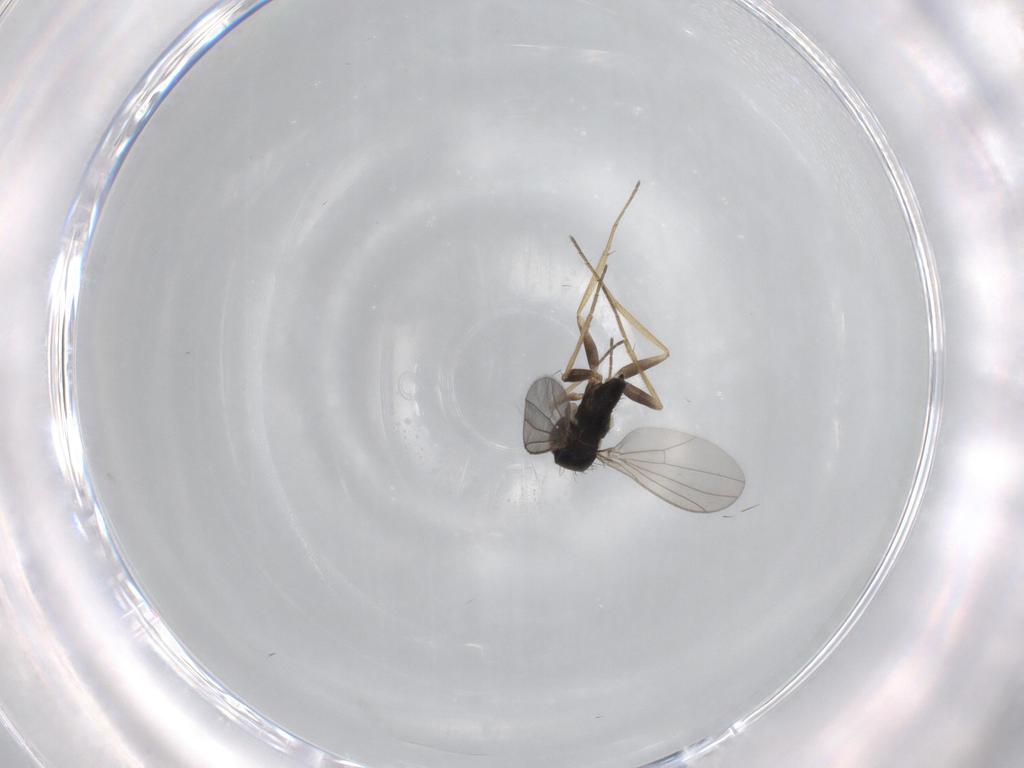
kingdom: Animalia
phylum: Arthropoda
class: Insecta
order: Diptera
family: Dolichopodidae
